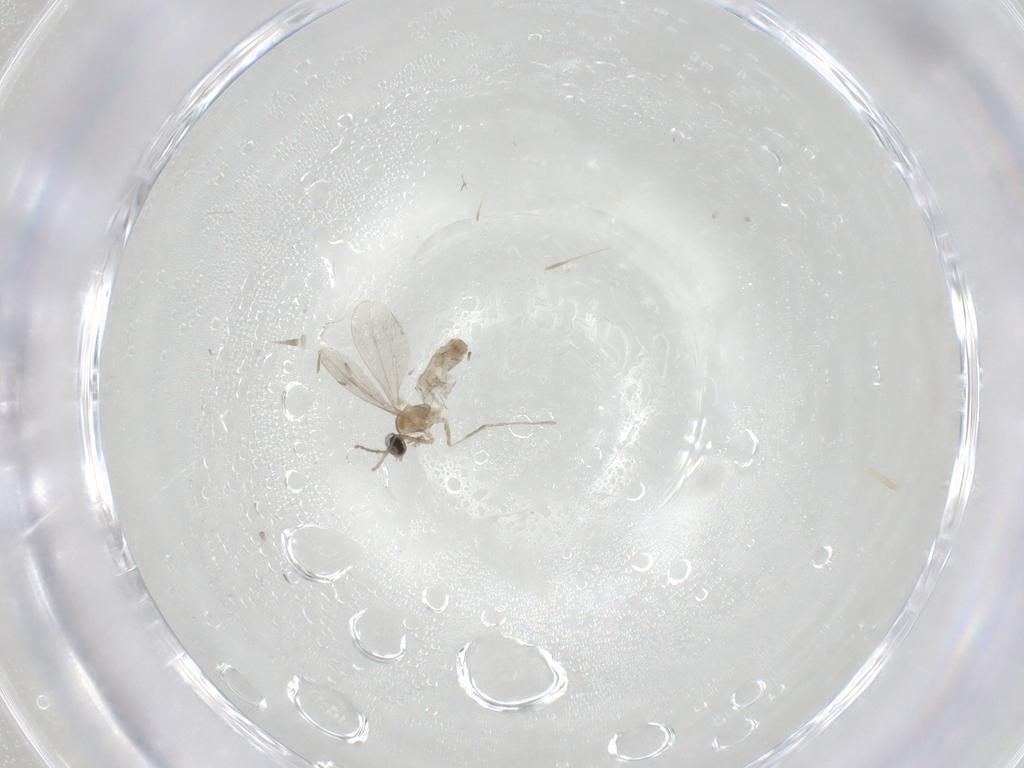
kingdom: Animalia
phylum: Arthropoda
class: Insecta
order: Diptera
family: Cecidomyiidae
